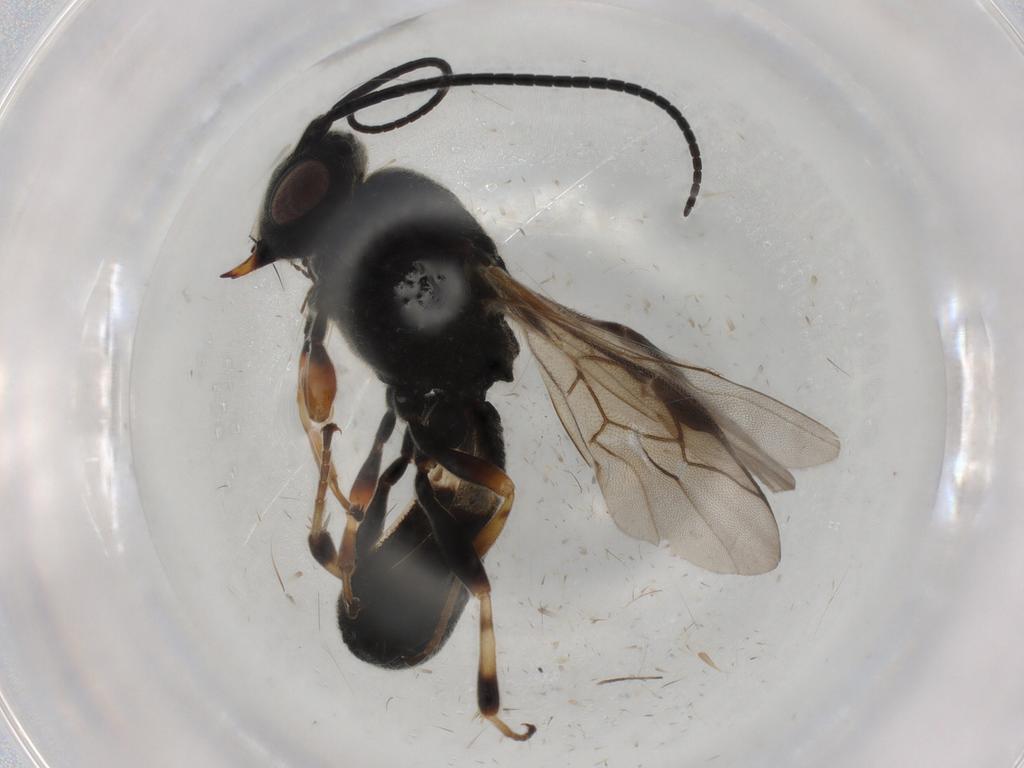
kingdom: Animalia
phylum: Arthropoda
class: Insecta
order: Hymenoptera
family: Braconidae
